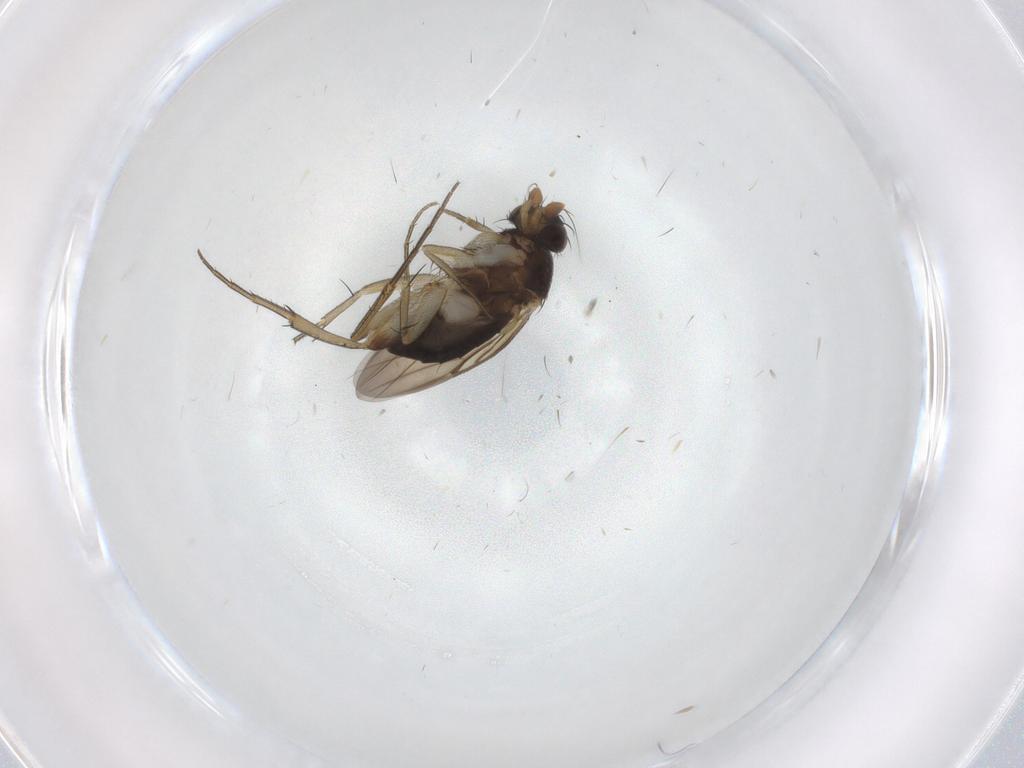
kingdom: Animalia
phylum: Arthropoda
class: Insecta
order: Diptera
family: Phoridae
